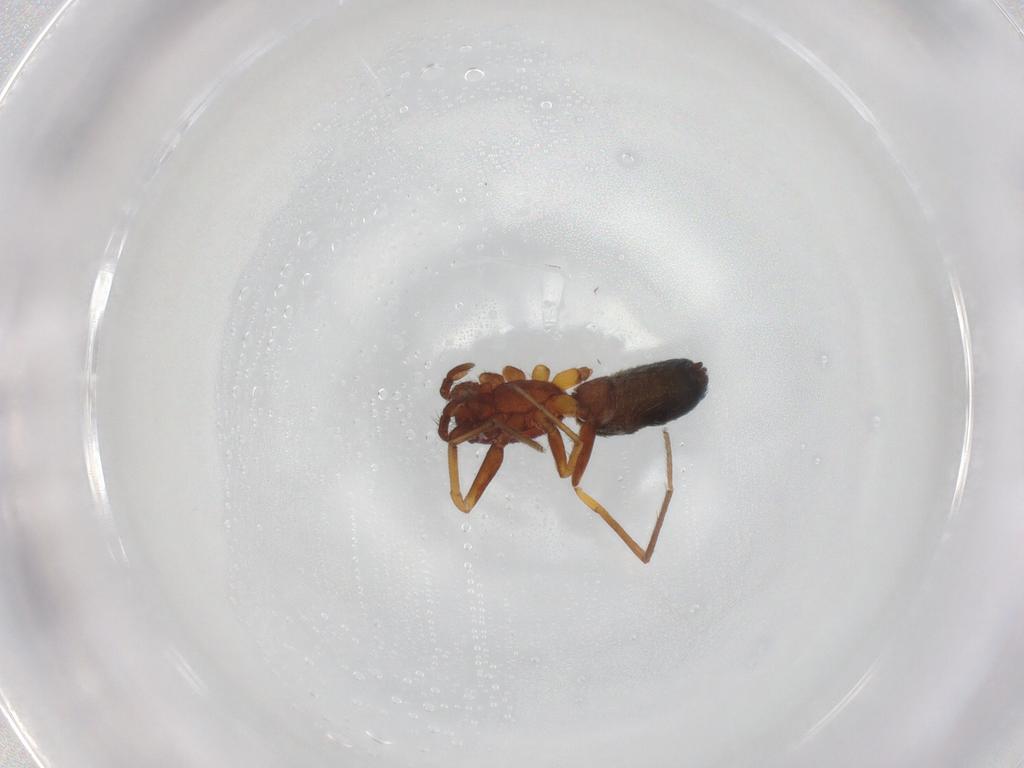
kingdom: Animalia
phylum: Arthropoda
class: Arachnida
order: Araneae
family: Gnaphosidae
